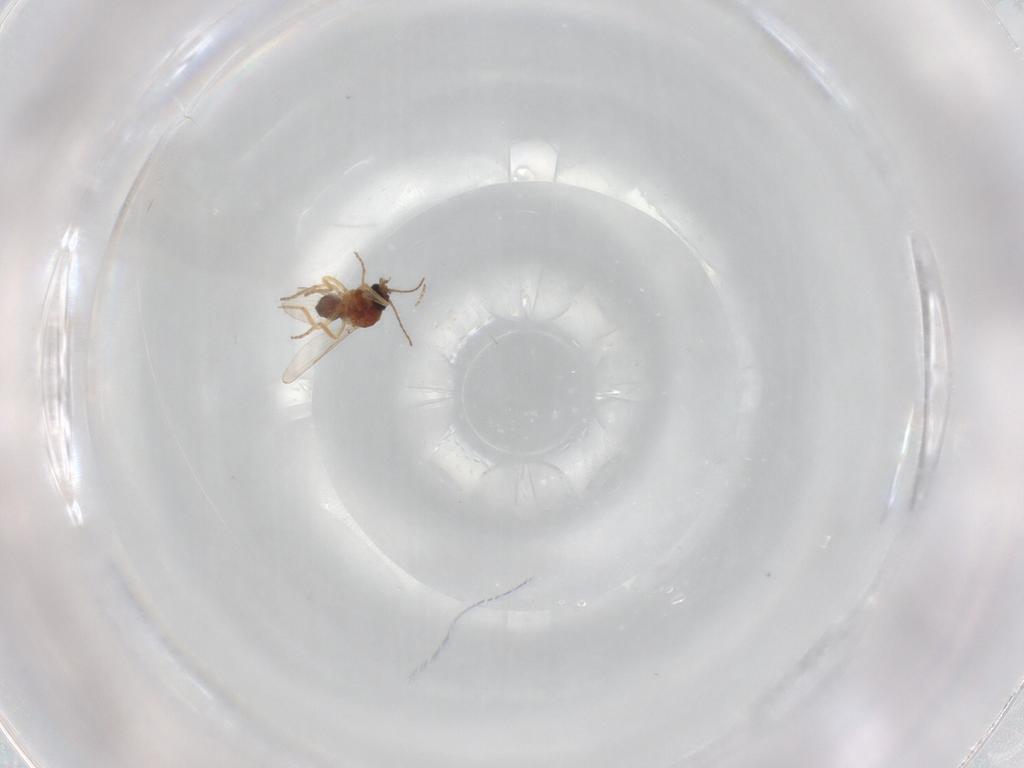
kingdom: Animalia
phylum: Arthropoda
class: Insecta
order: Diptera
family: Ceratopogonidae
